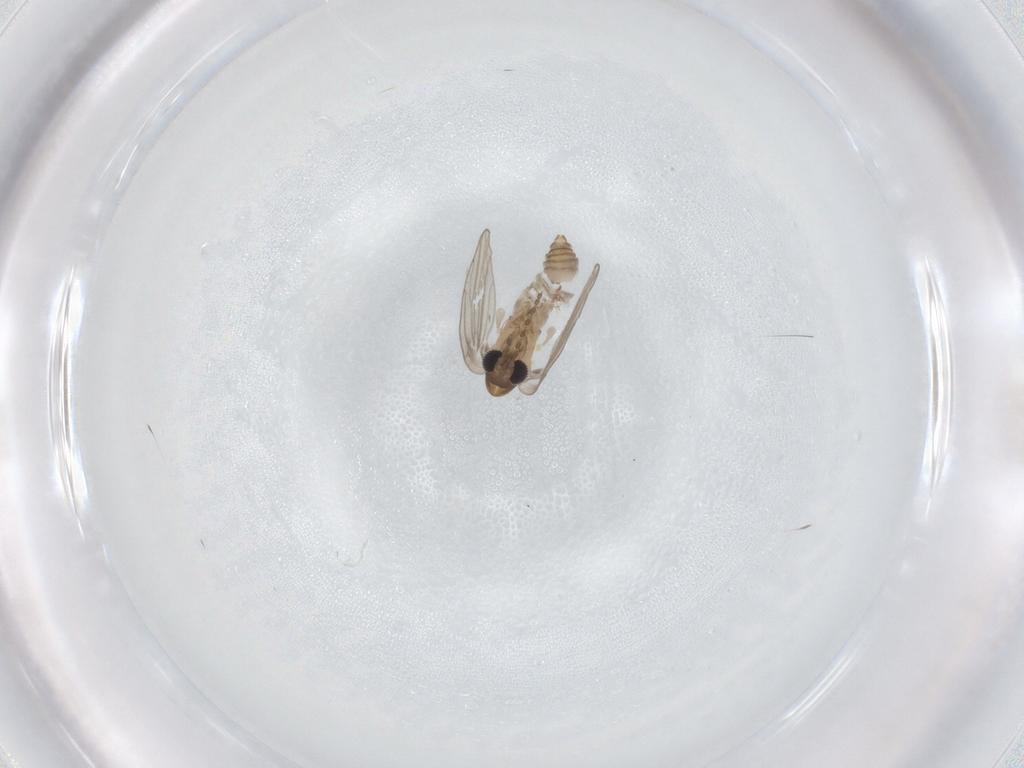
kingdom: Animalia
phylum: Arthropoda
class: Insecta
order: Diptera
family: Psychodidae
